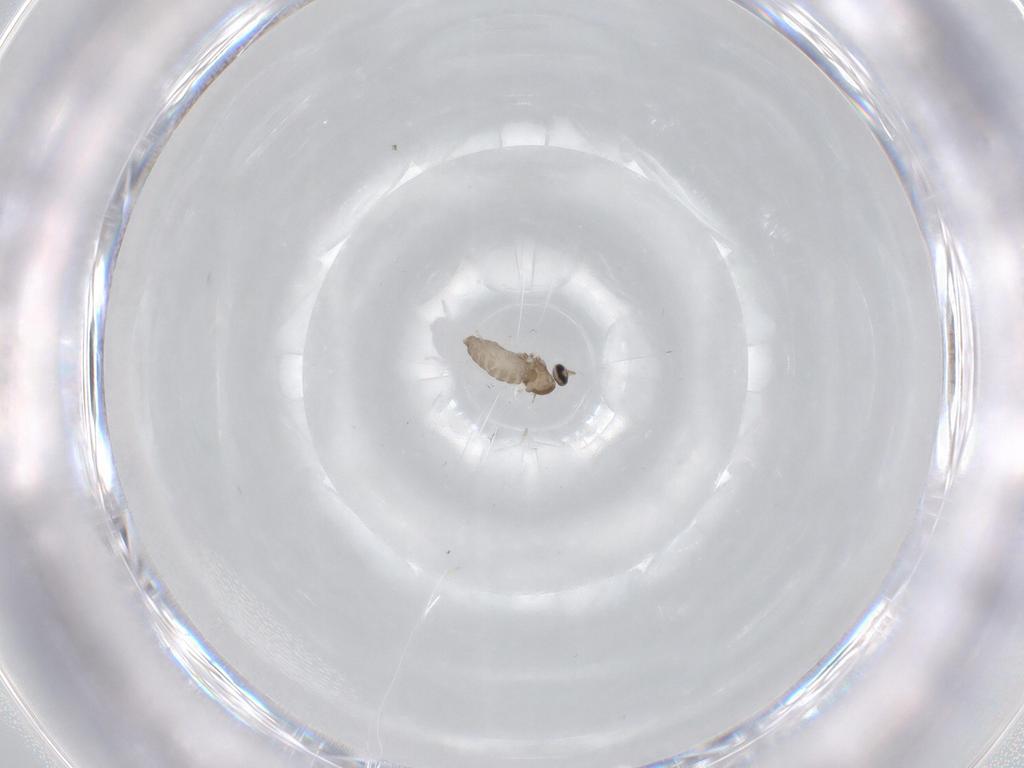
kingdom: Animalia
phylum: Arthropoda
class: Insecta
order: Diptera
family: Cecidomyiidae
